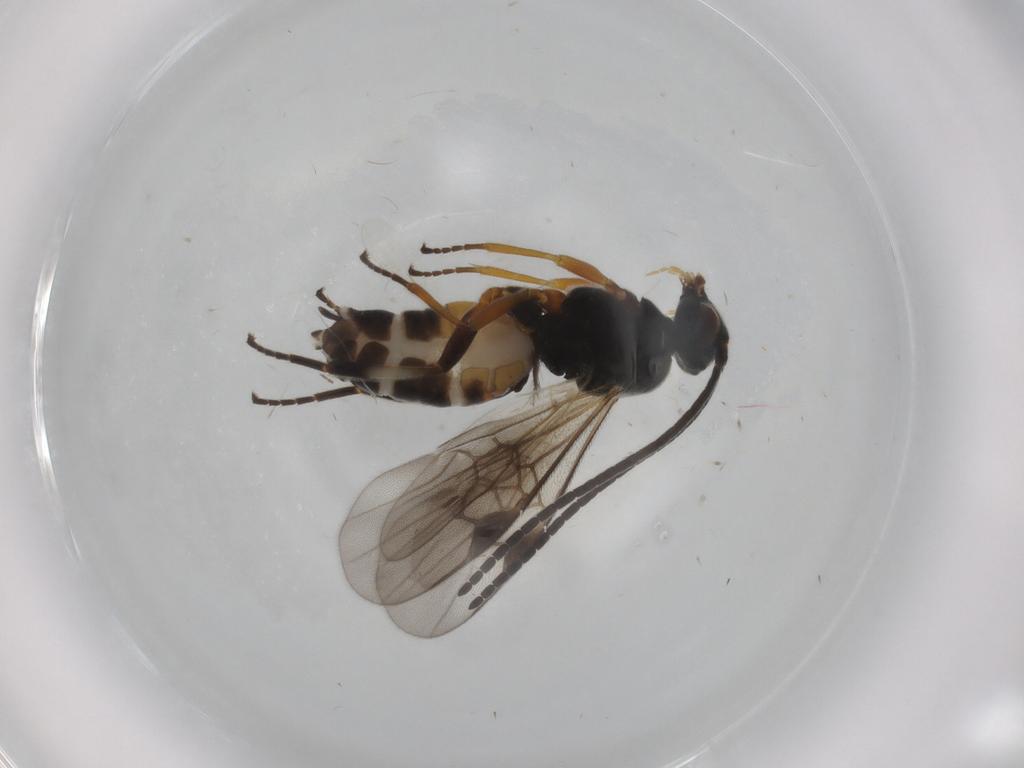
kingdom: Animalia
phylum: Arthropoda
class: Insecta
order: Hymenoptera
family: Braconidae
